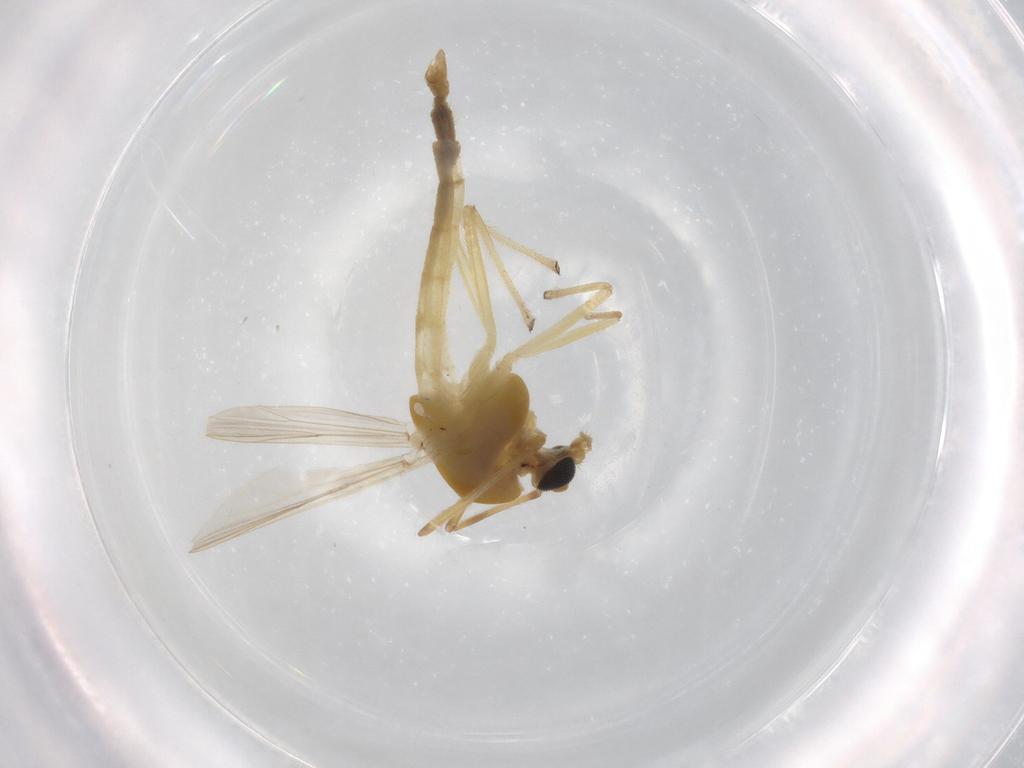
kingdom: Animalia
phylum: Arthropoda
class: Insecta
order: Diptera
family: Chironomidae
